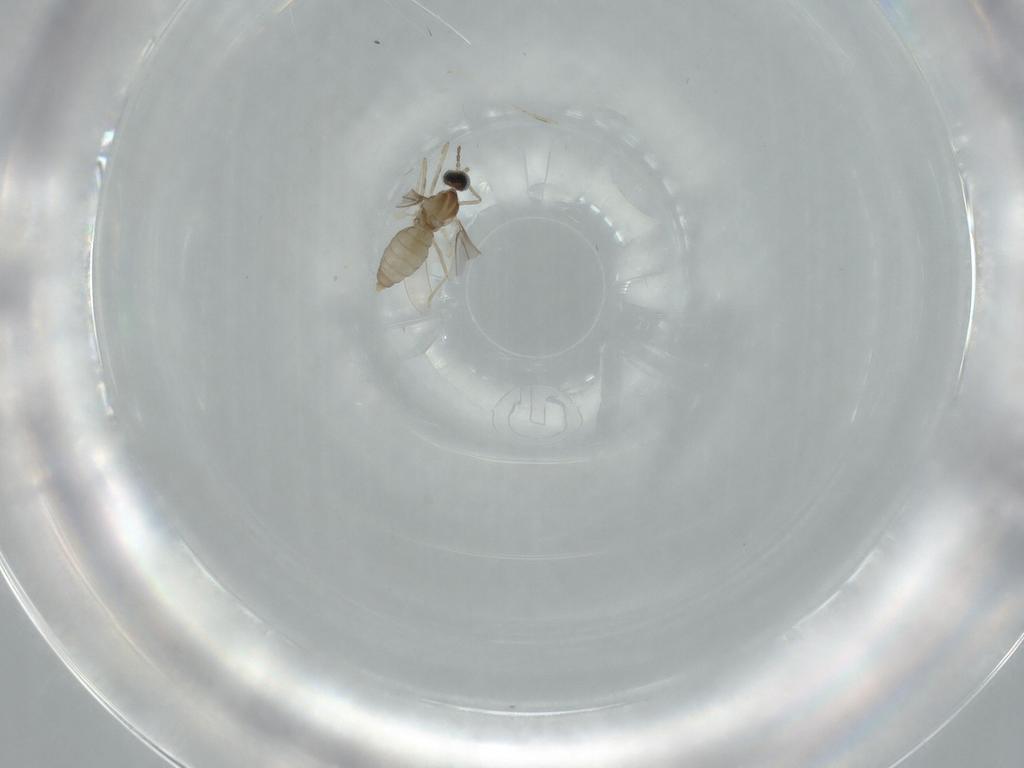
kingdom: Animalia
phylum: Arthropoda
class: Insecta
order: Diptera
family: Cecidomyiidae
